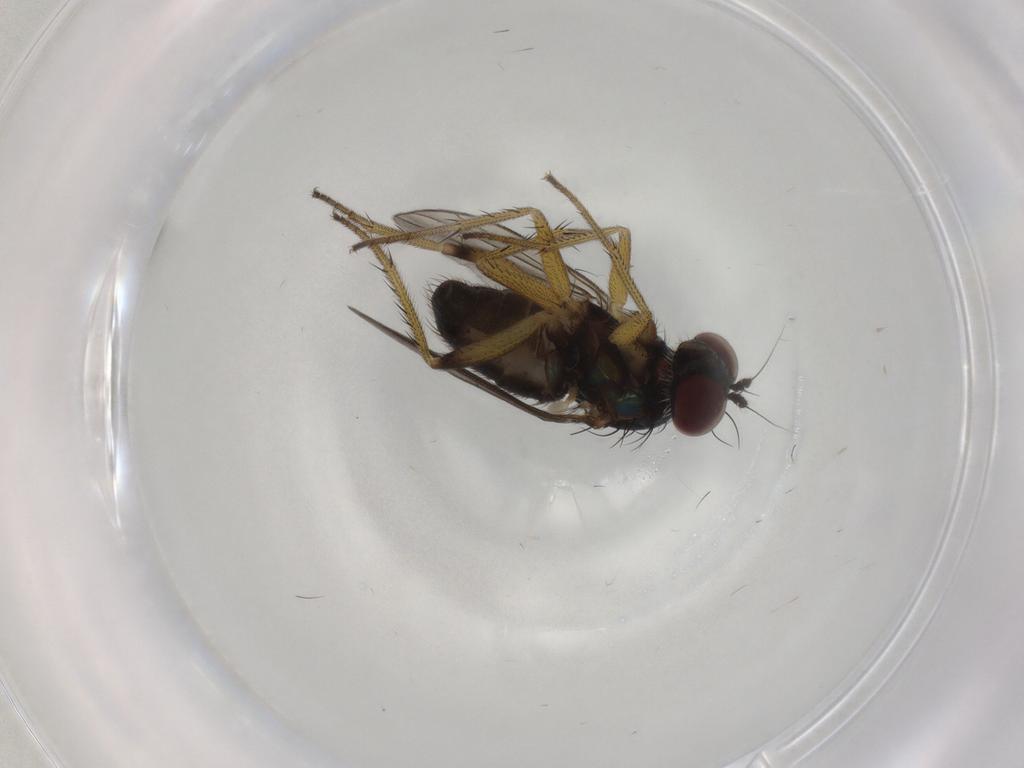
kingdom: Animalia
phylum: Arthropoda
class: Insecta
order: Diptera
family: Dolichopodidae
